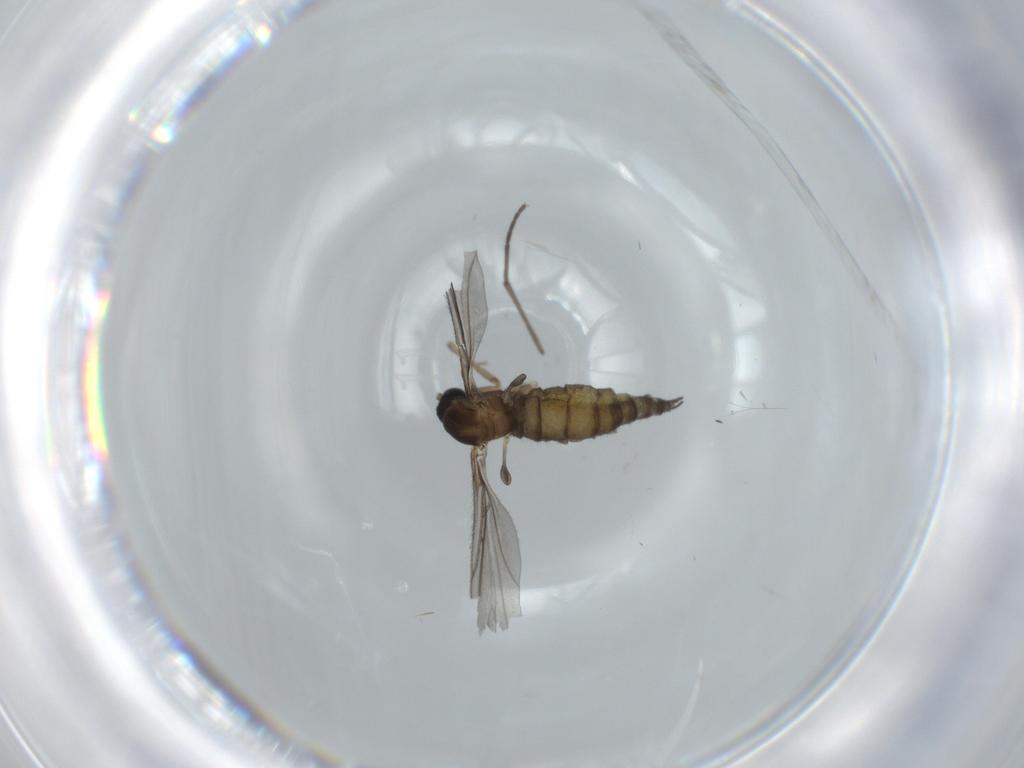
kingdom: Animalia
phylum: Arthropoda
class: Insecta
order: Diptera
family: Sciaridae
